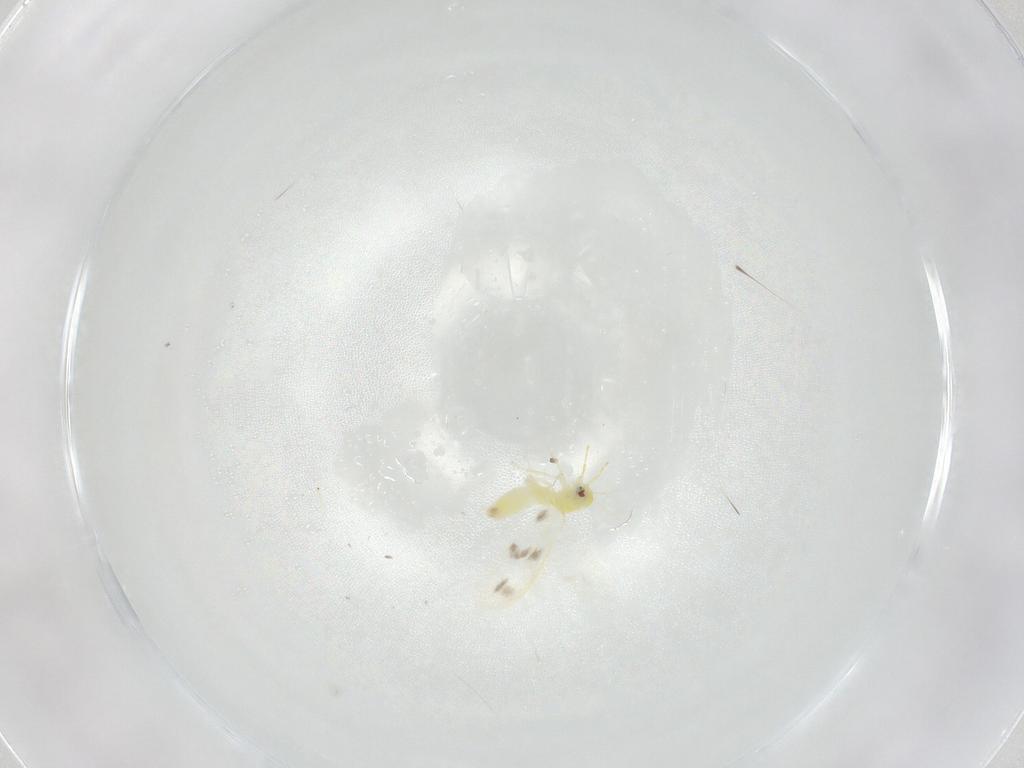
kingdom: Animalia
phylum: Arthropoda
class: Insecta
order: Hemiptera
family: Aleyrodidae
